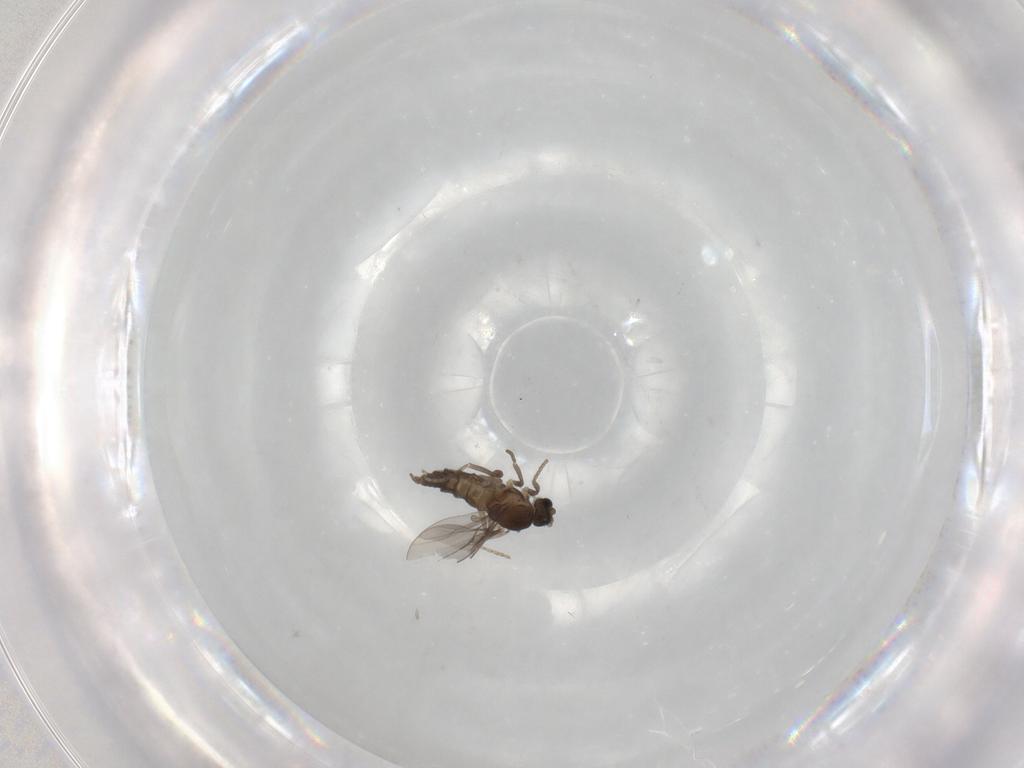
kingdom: Animalia
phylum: Arthropoda
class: Insecta
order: Diptera
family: Cecidomyiidae
